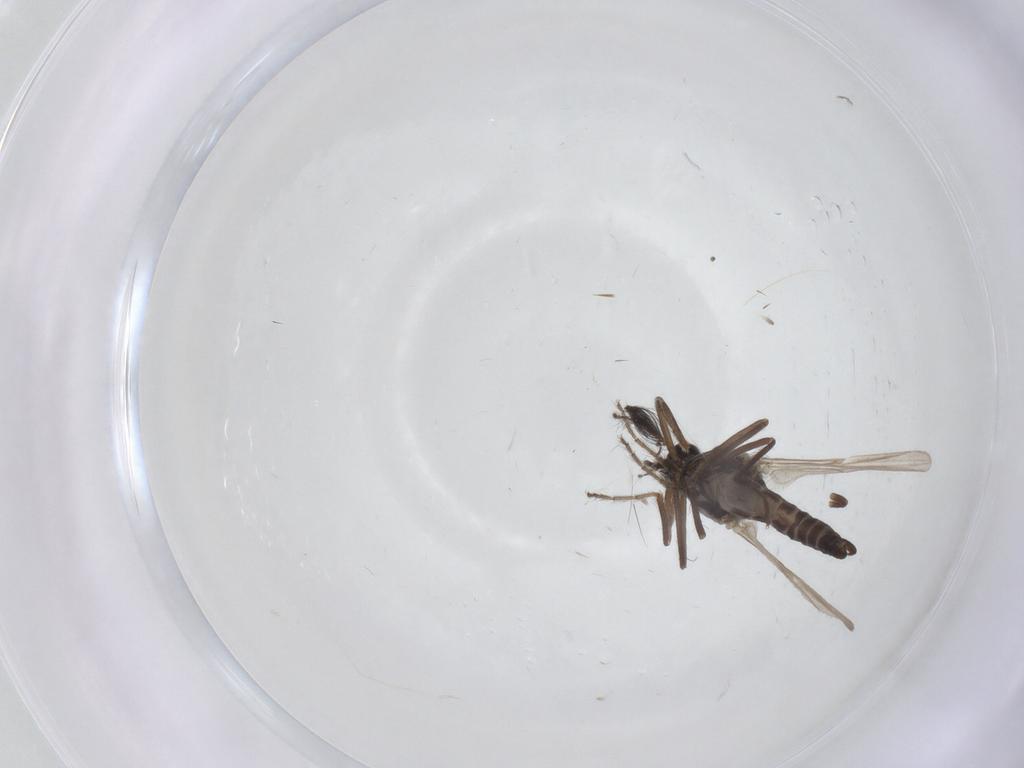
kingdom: Animalia
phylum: Arthropoda
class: Insecta
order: Diptera
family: Ceratopogonidae
